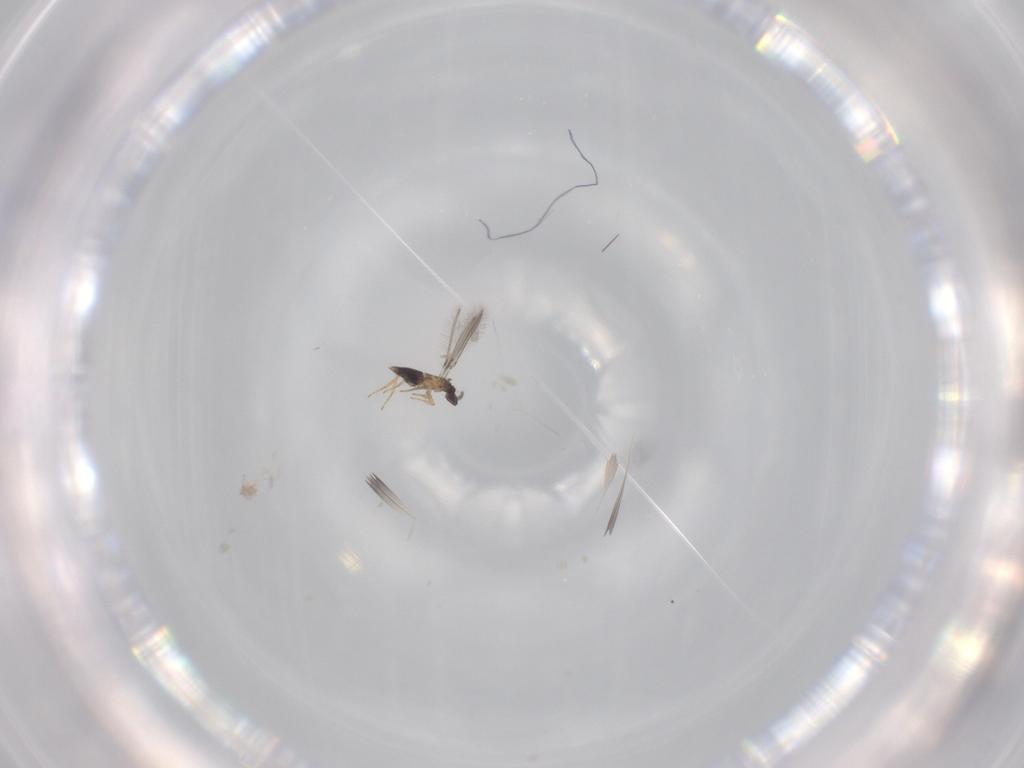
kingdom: Animalia
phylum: Arthropoda
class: Insecta
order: Hymenoptera
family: Mymaridae
